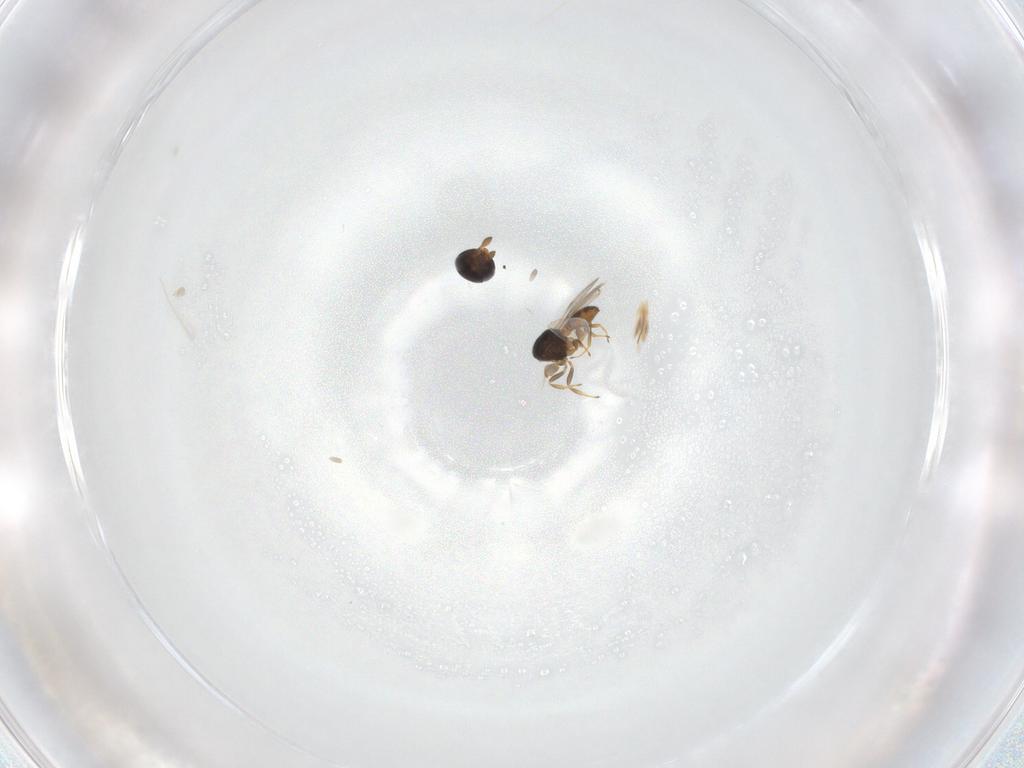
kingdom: Animalia
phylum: Arthropoda
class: Insecta
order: Hymenoptera
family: Scelionidae
